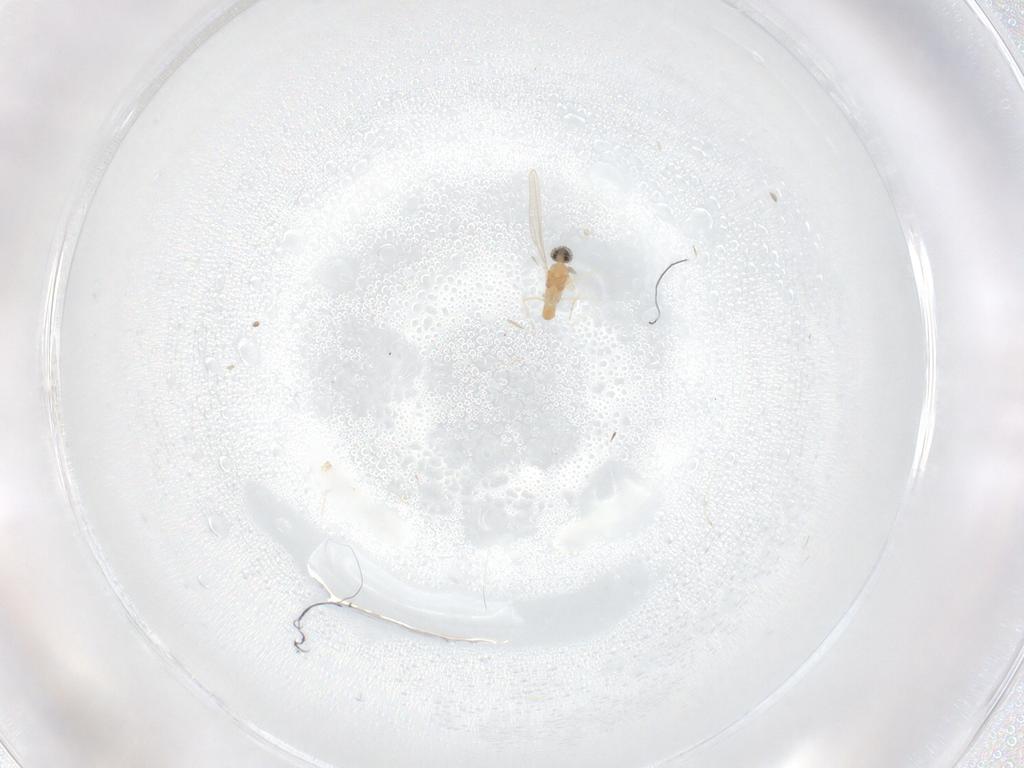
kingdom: Animalia
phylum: Arthropoda
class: Insecta
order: Diptera
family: Cecidomyiidae
